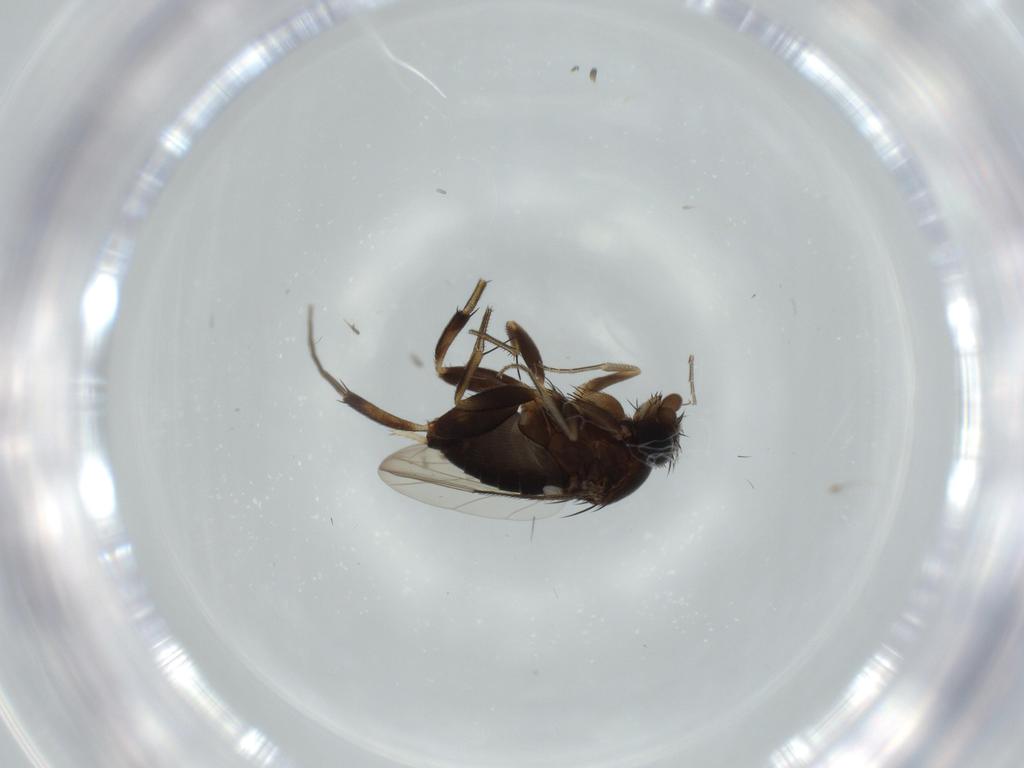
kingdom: Animalia
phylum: Arthropoda
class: Insecta
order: Diptera
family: Phoridae
